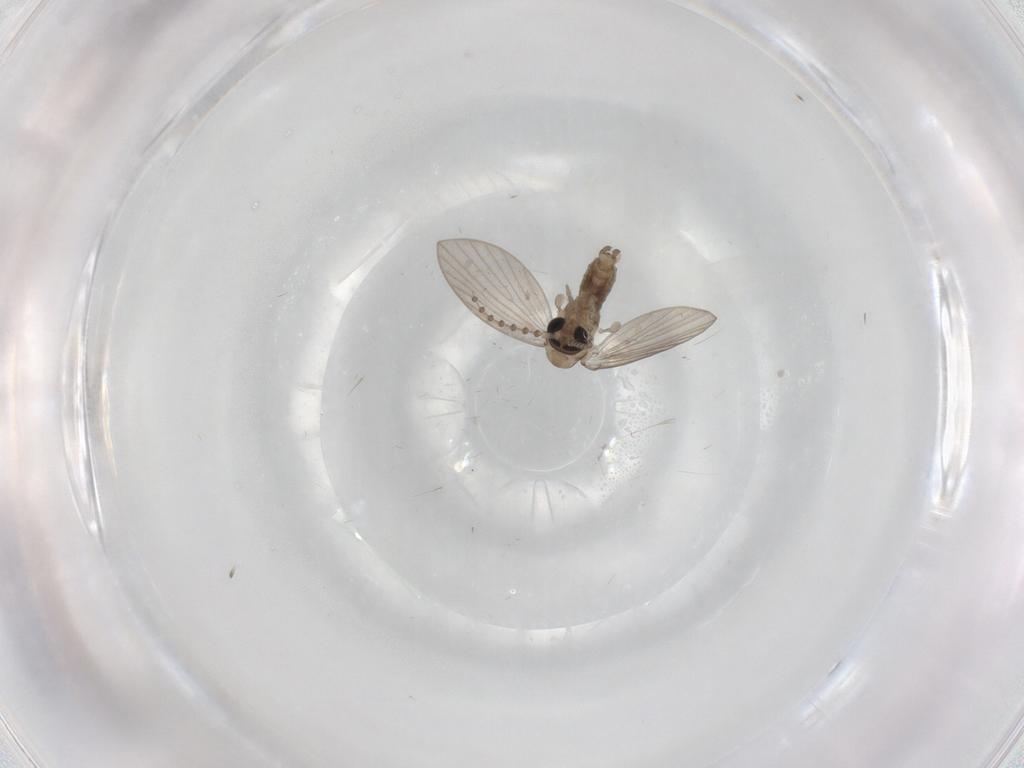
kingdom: Animalia
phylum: Arthropoda
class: Insecta
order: Diptera
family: Psychodidae
